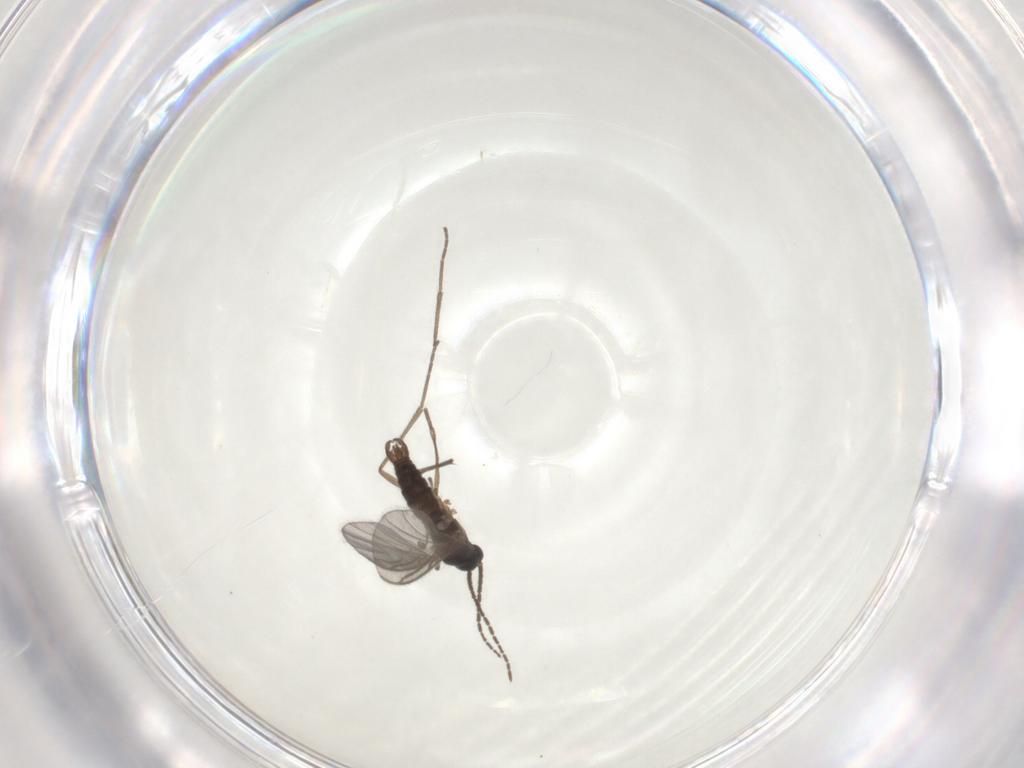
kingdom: Animalia
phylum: Arthropoda
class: Insecta
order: Diptera
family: Sciaridae
